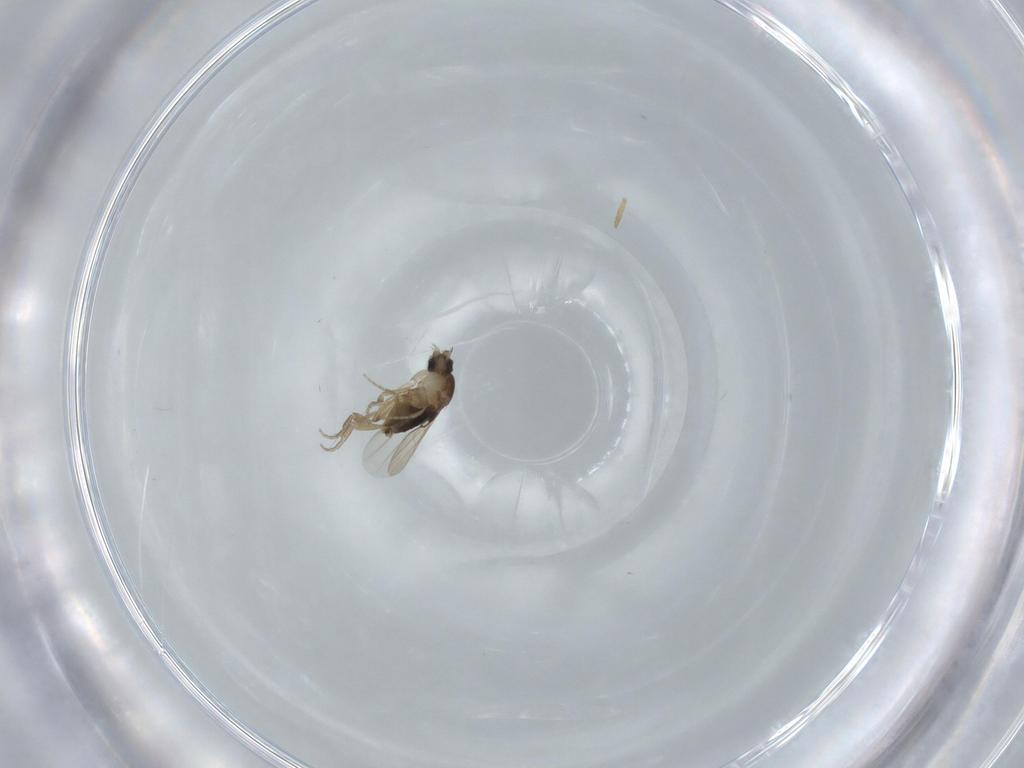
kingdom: Animalia
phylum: Arthropoda
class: Insecta
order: Diptera
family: Phoridae
